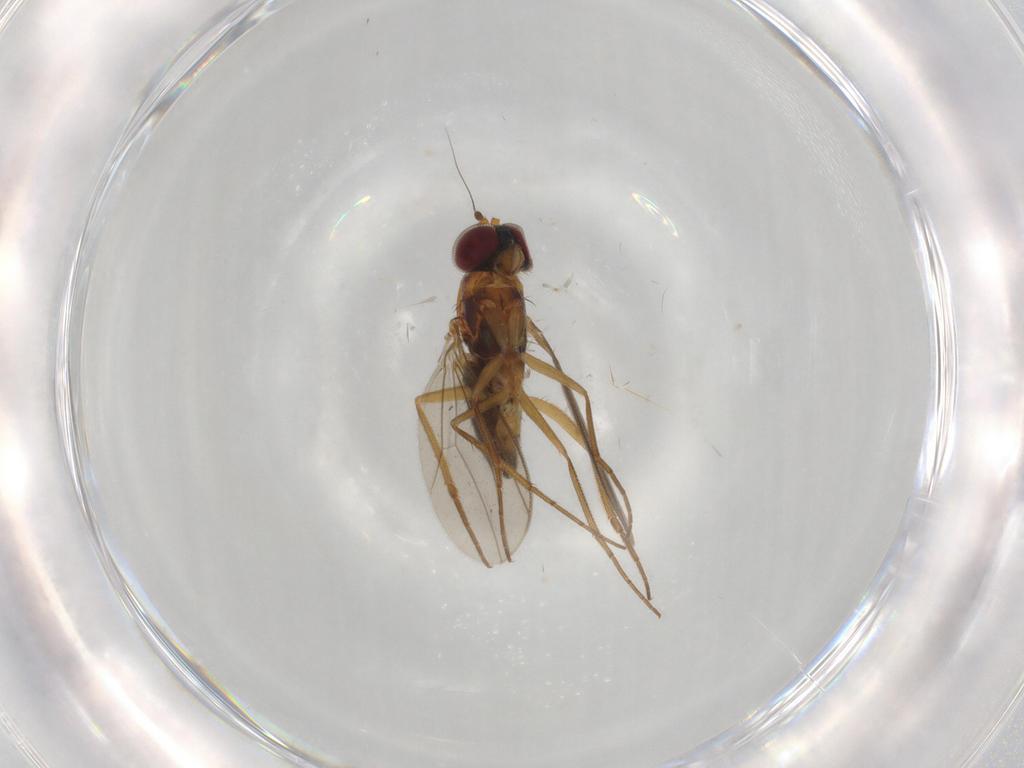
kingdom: Animalia
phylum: Arthropoda
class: Insecta
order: Diptera
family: Dolichopodidae
